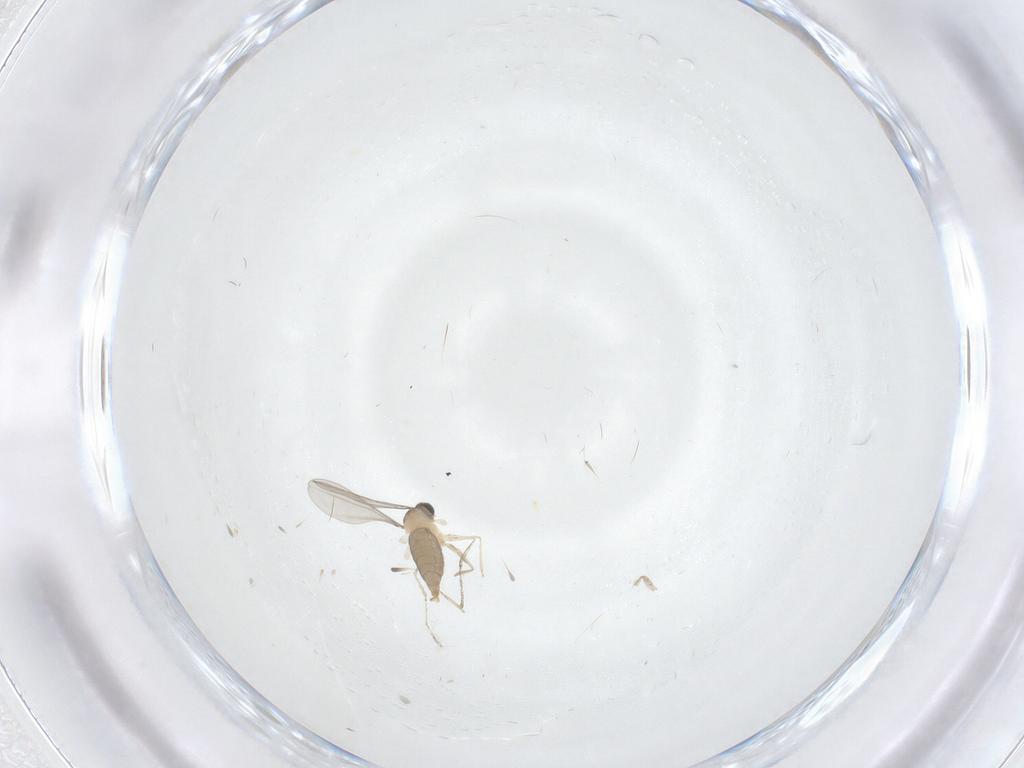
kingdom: Animalia
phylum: Arthropoda
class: Insecta
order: Diptera
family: Cecidomyiidae
